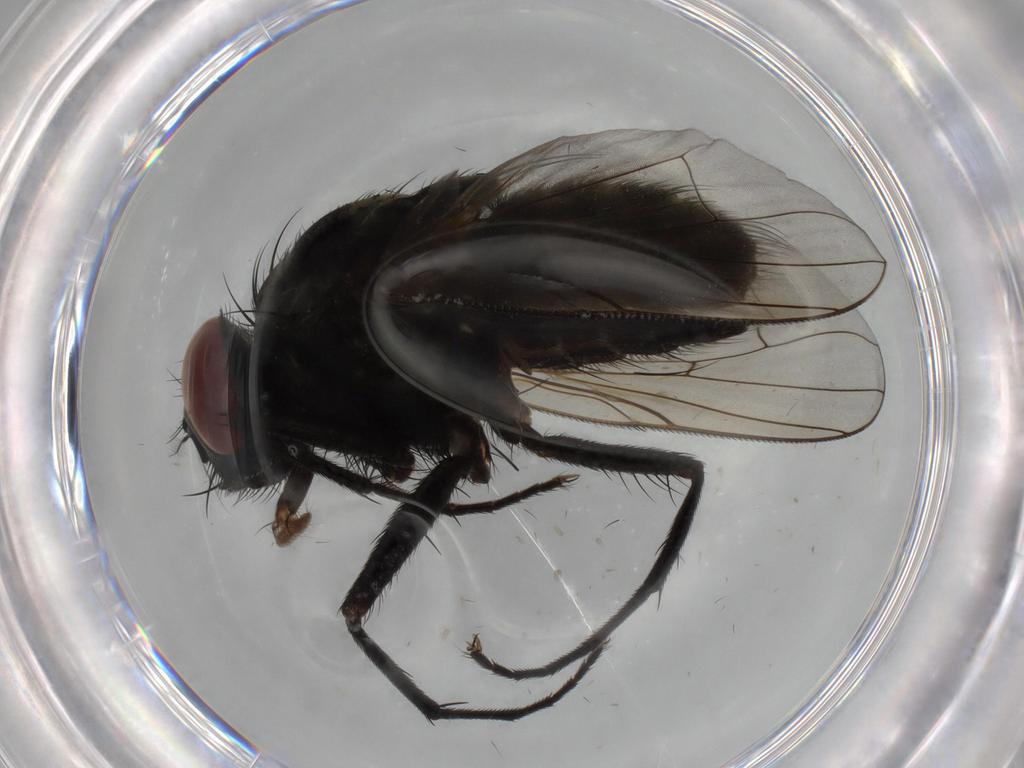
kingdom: Animalia
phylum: Arthropoda
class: Insecta
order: Diptera
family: Muscidae
